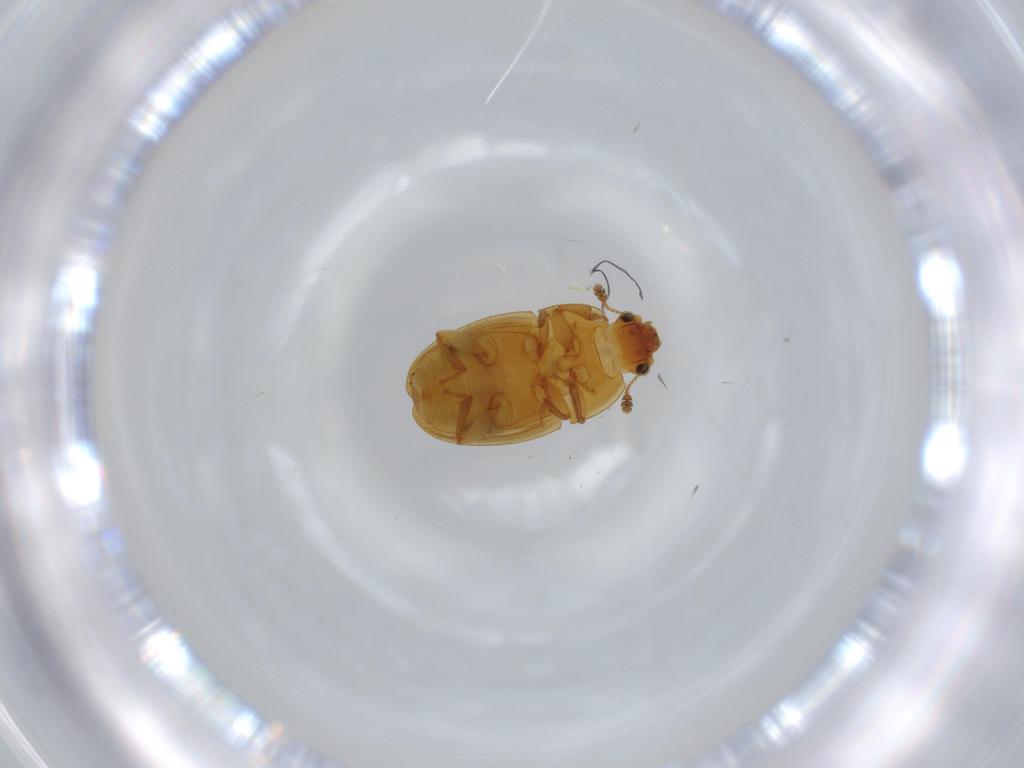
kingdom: Animalia
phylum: Arthropoda
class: Insecta
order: Coleoptera
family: Nitidulidae
